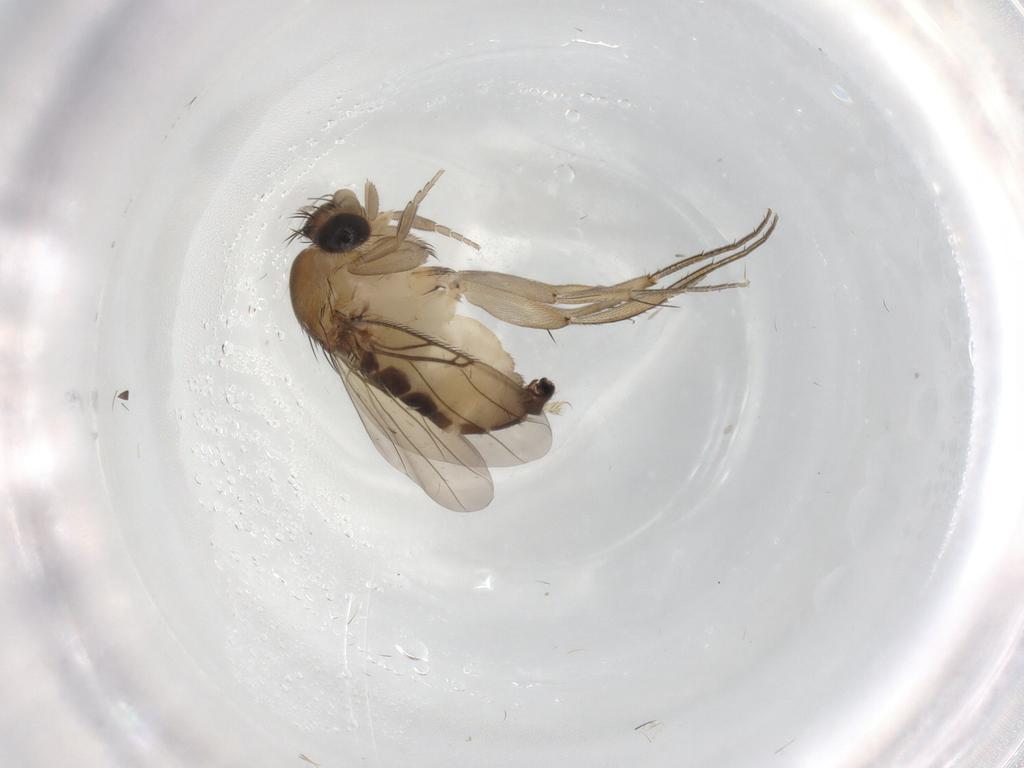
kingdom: Animalia
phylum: Arthropoda
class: Insecta
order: Diptera
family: Phoridae
